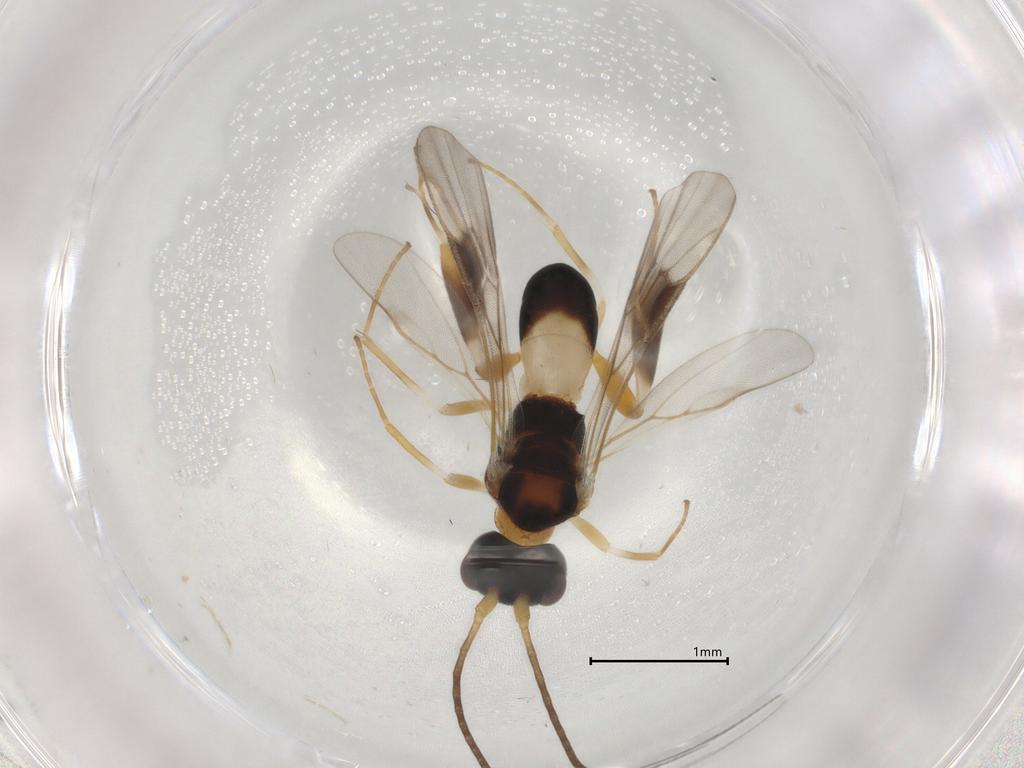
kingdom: Animalia
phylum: Arthropoda
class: Insecta
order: Hymenoptera
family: Braconidae
